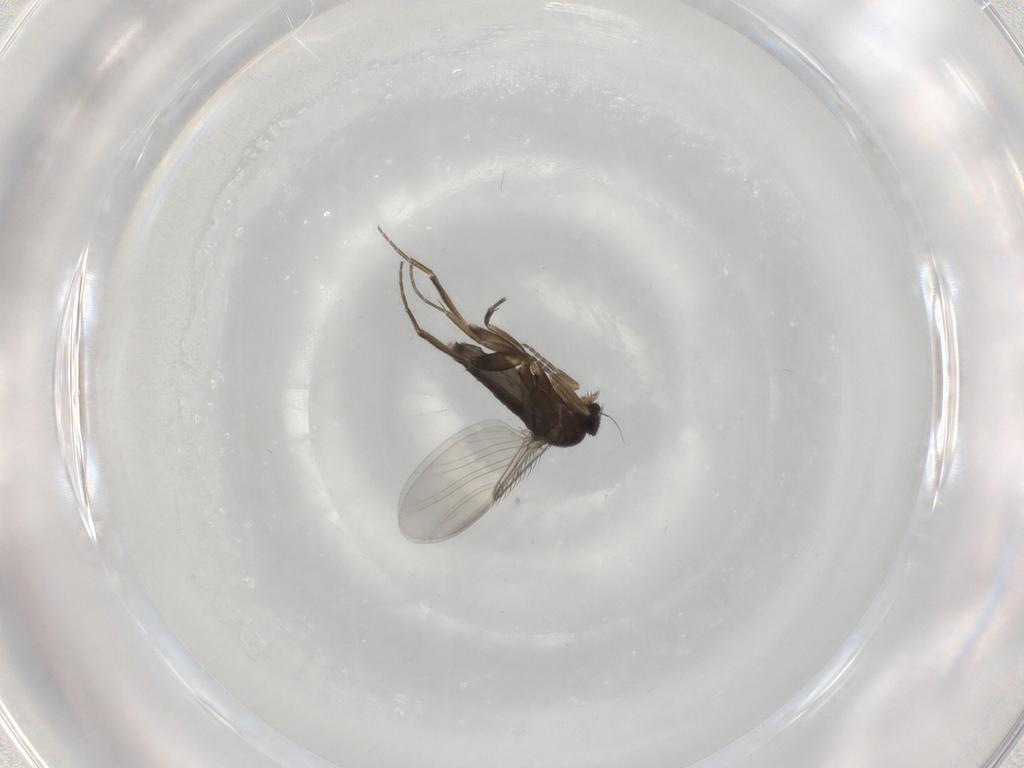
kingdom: Animalia
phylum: Arthropoda
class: Insecta
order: Diptera
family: Phoridae
